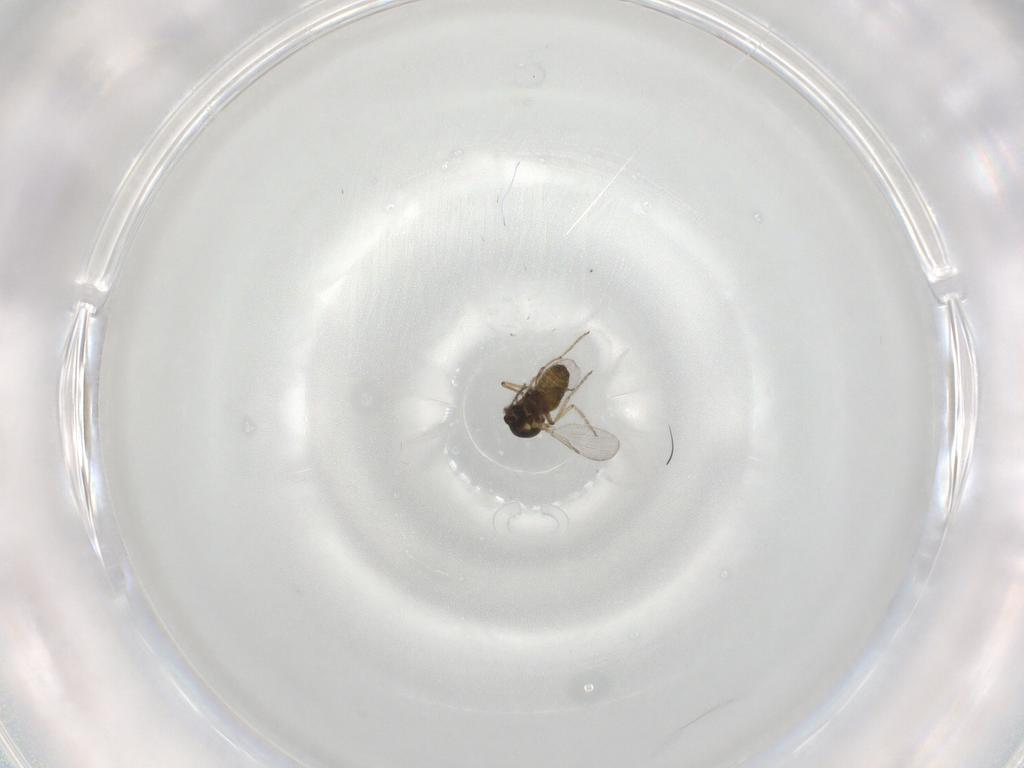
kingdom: Animalia
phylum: Arthropoda
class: Insecta
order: Diptera
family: Ceratopogonidae
